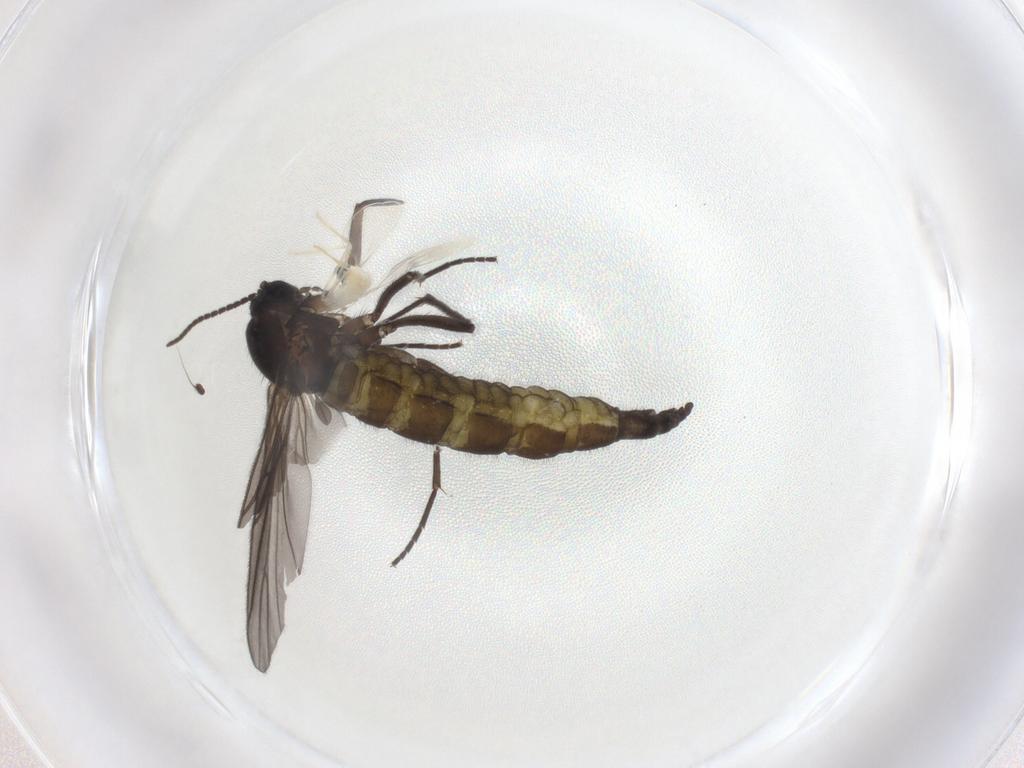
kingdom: Animalia
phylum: Arthropoda
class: Insecta
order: Diptera
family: Cecidomyiidae
